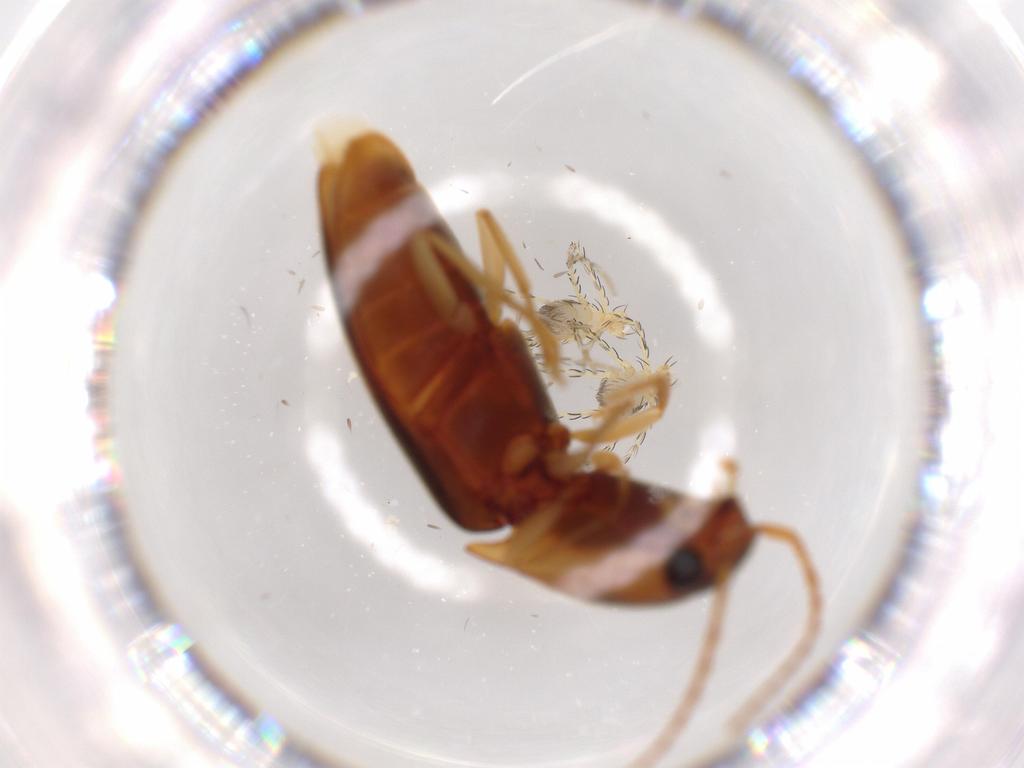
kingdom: Animalia
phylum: Arthropoda
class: Arachnida
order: Trombidiformes
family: Erythraeidae
